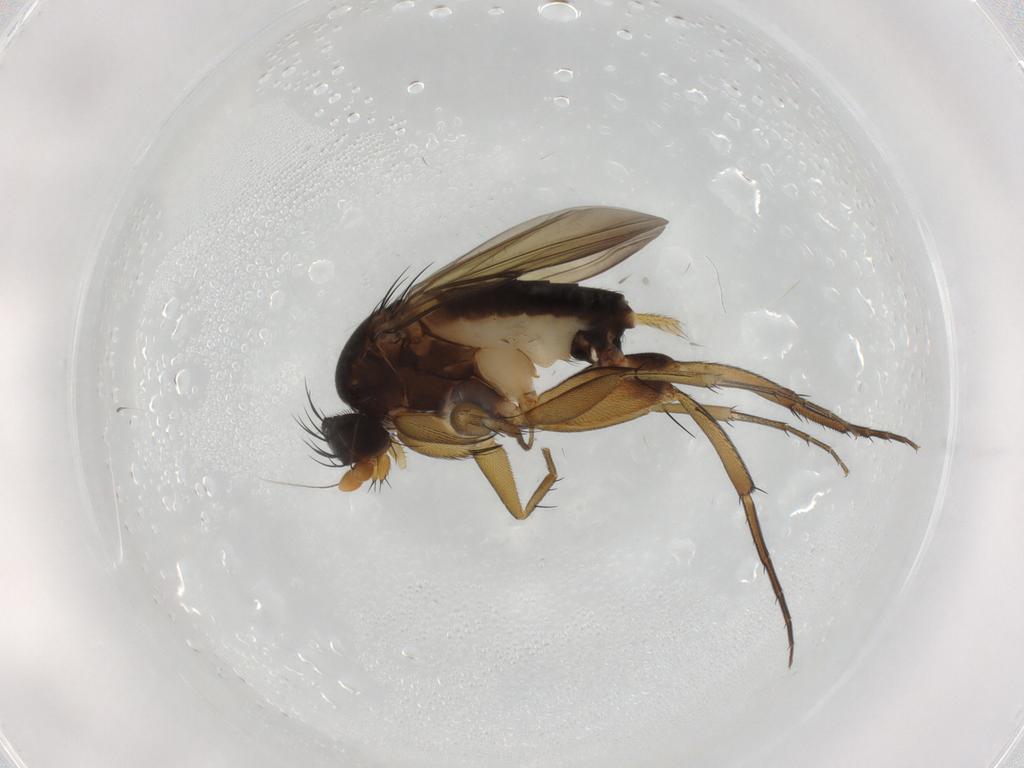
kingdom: Animalia
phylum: Arthropoda
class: Insecta
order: Diptera
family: Phoridae
